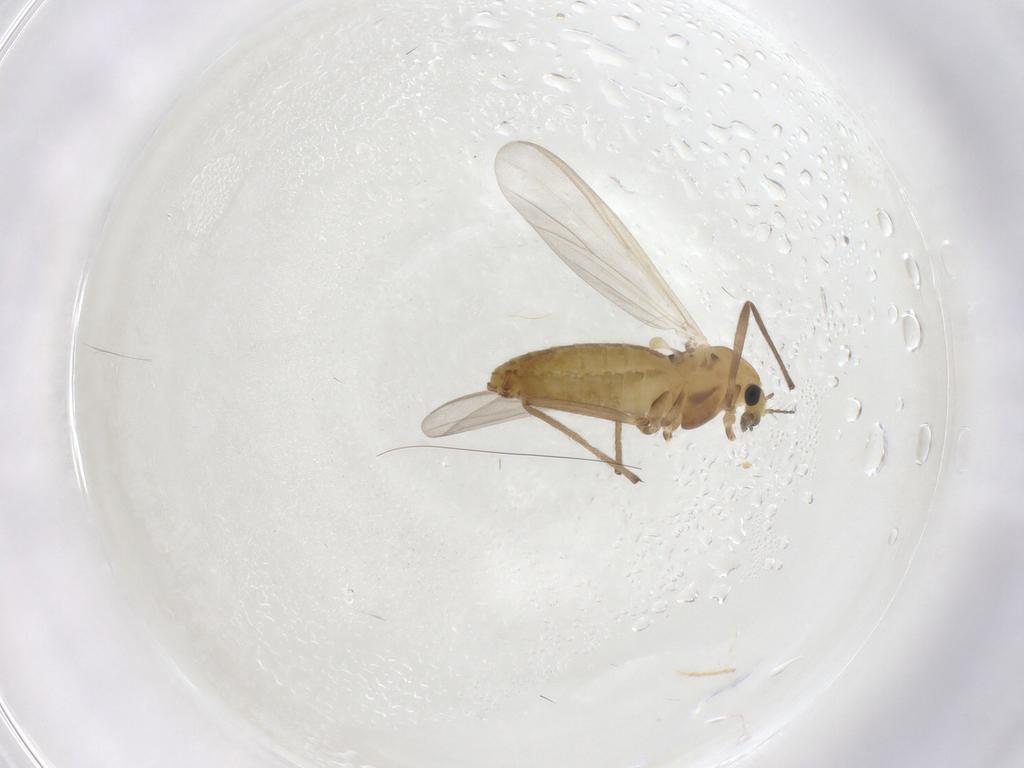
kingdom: Animalia
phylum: Arthropoda
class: Insecta
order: Diptera
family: Chironomidae
